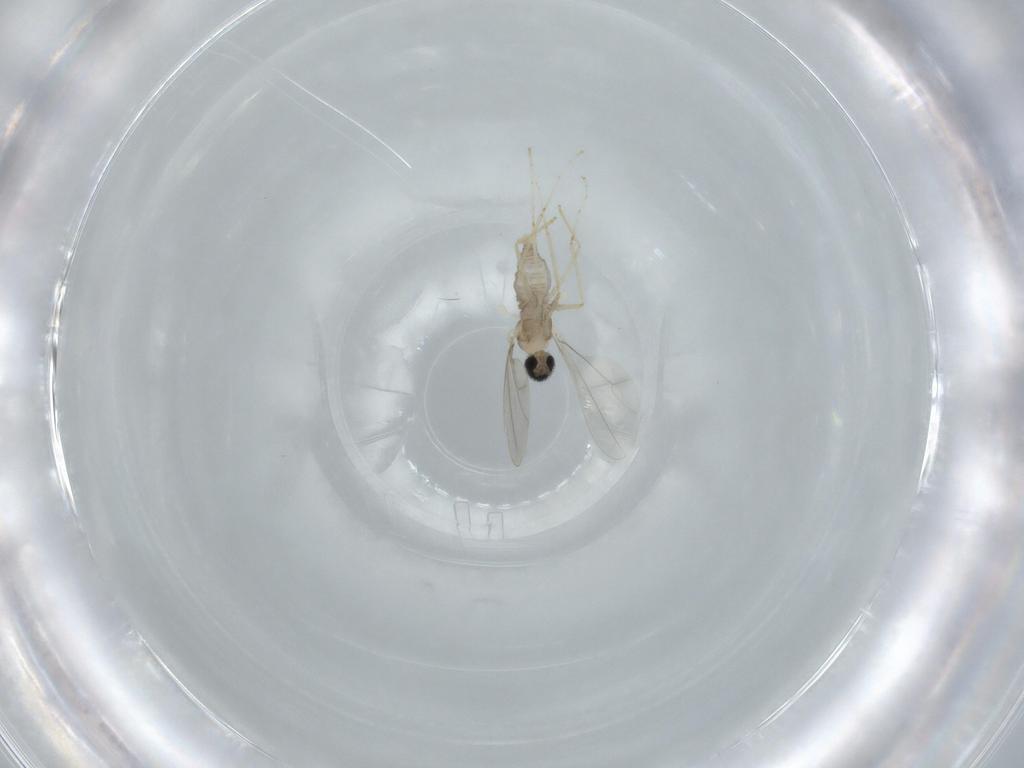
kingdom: Animalia
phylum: Arthropoda
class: Insecta
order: Diptera
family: Cecidomyiidae
